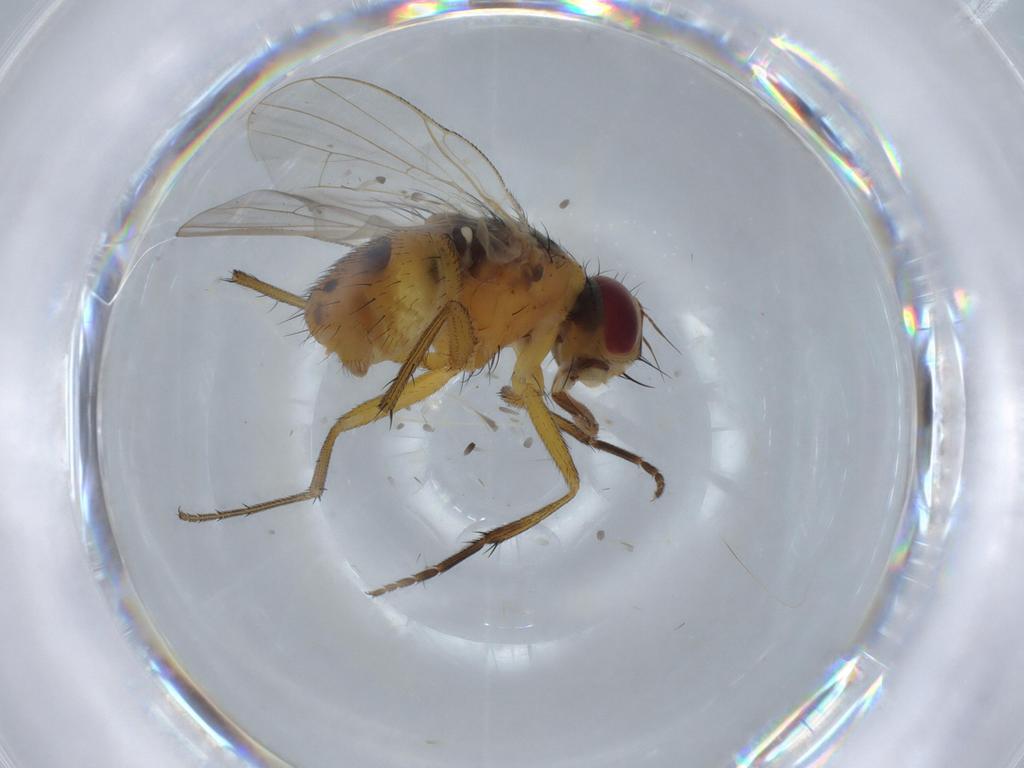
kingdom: Animalia
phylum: Arthropoda
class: Insecta
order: Diptera
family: Muscidae
